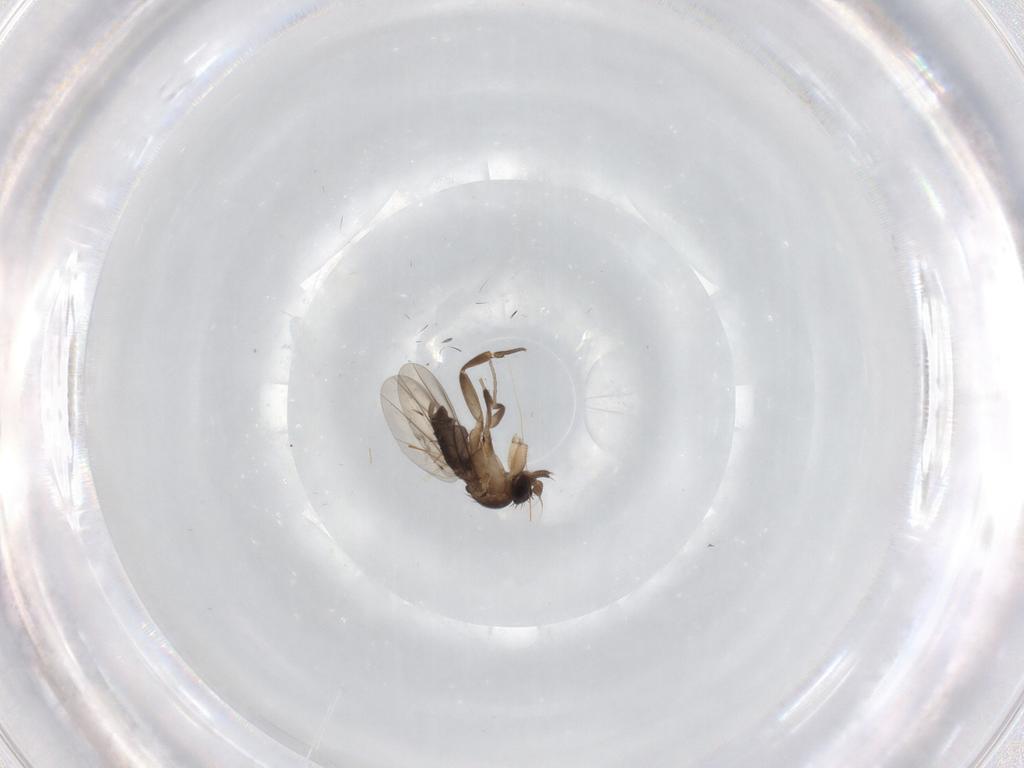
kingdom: Animalia
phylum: Arthropoda
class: Insecta
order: Diptera
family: Phoridae
